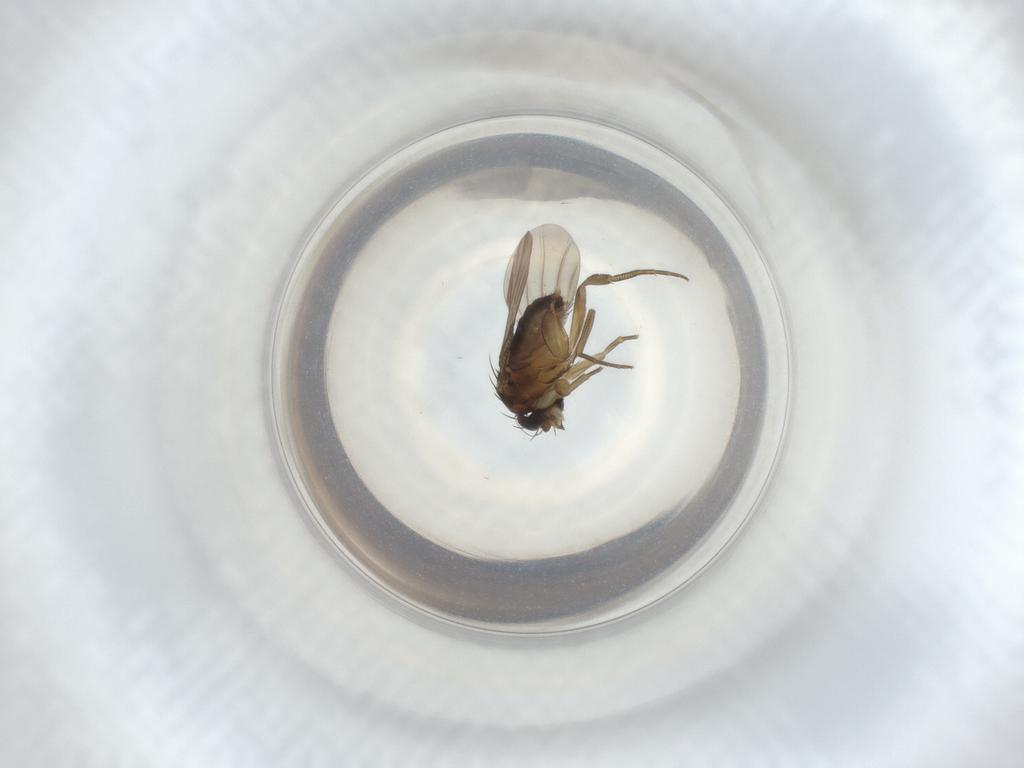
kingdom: Animalia
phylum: Arthropoda
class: Insecta
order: Diptera
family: Phoridae
